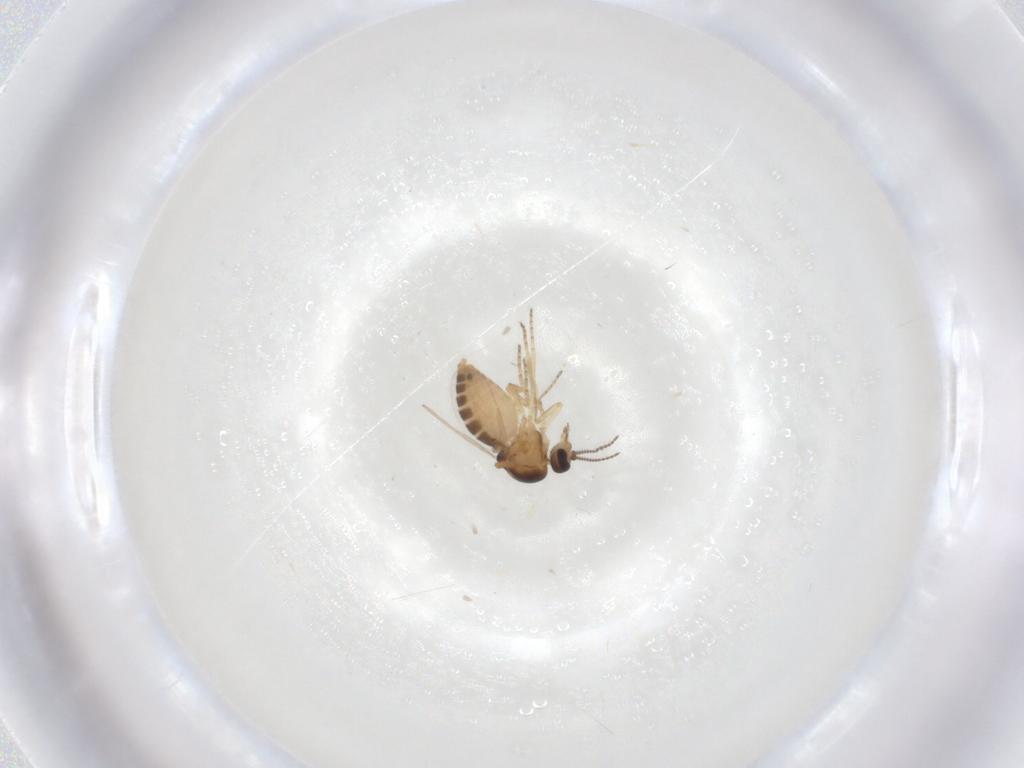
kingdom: Animalia
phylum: Arthropoda
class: Insecta
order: Diptera
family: Ceratopogonidae
